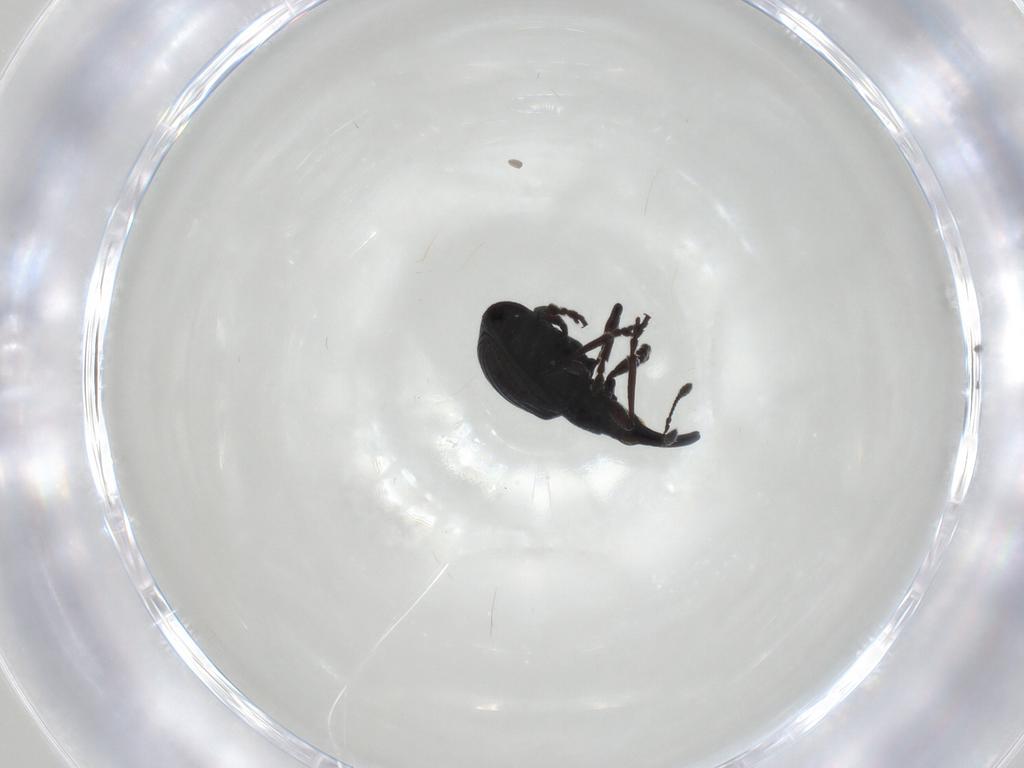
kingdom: Animalia
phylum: Arthropoda
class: Insecta
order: Coleoptera
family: Brentidae
